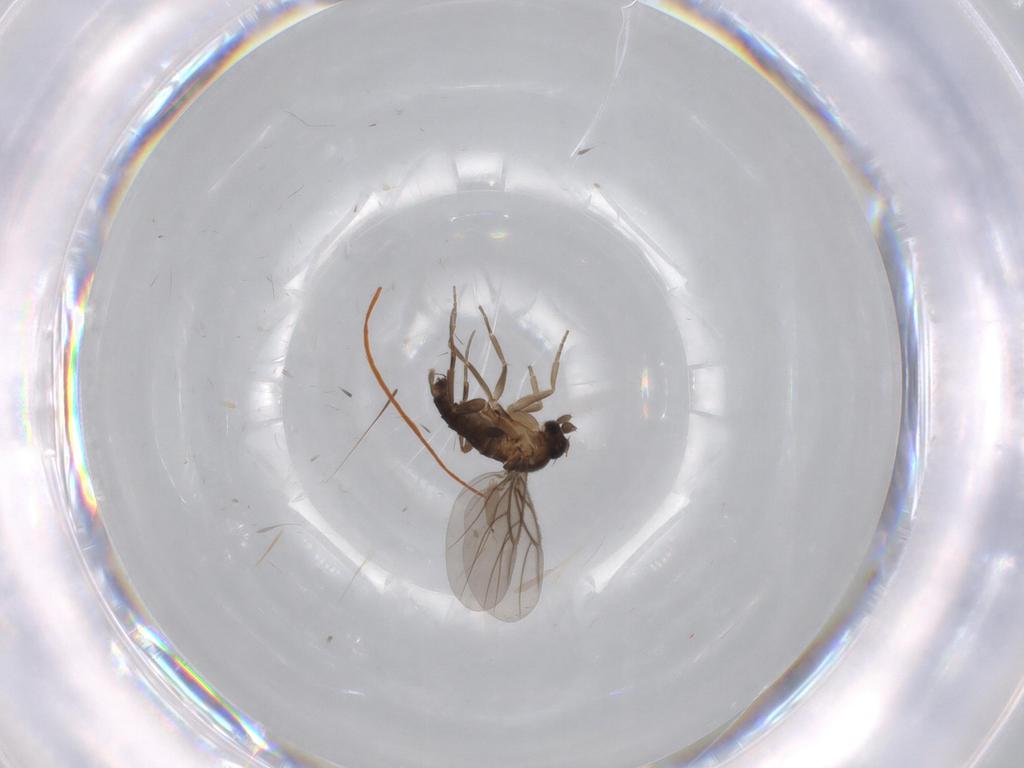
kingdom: Animalia
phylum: Arthropoda
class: Insecta
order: Diptera
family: Phoridae
